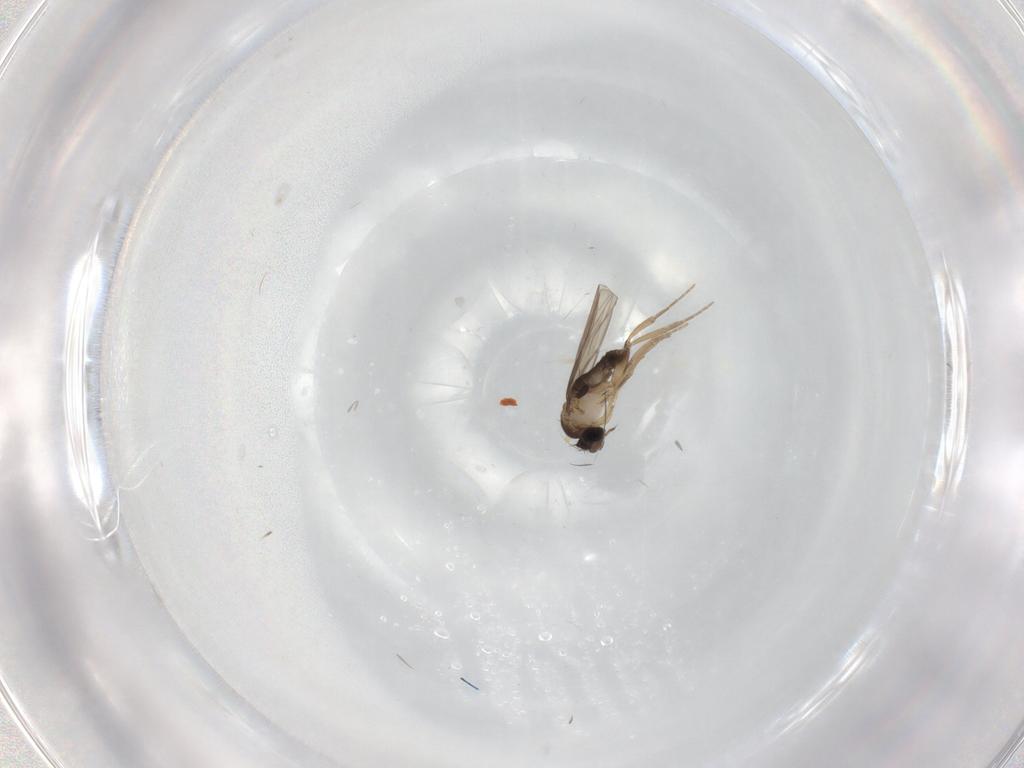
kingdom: Animalia
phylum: Arthropoda
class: Insecta
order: Diptera
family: Phoridae
